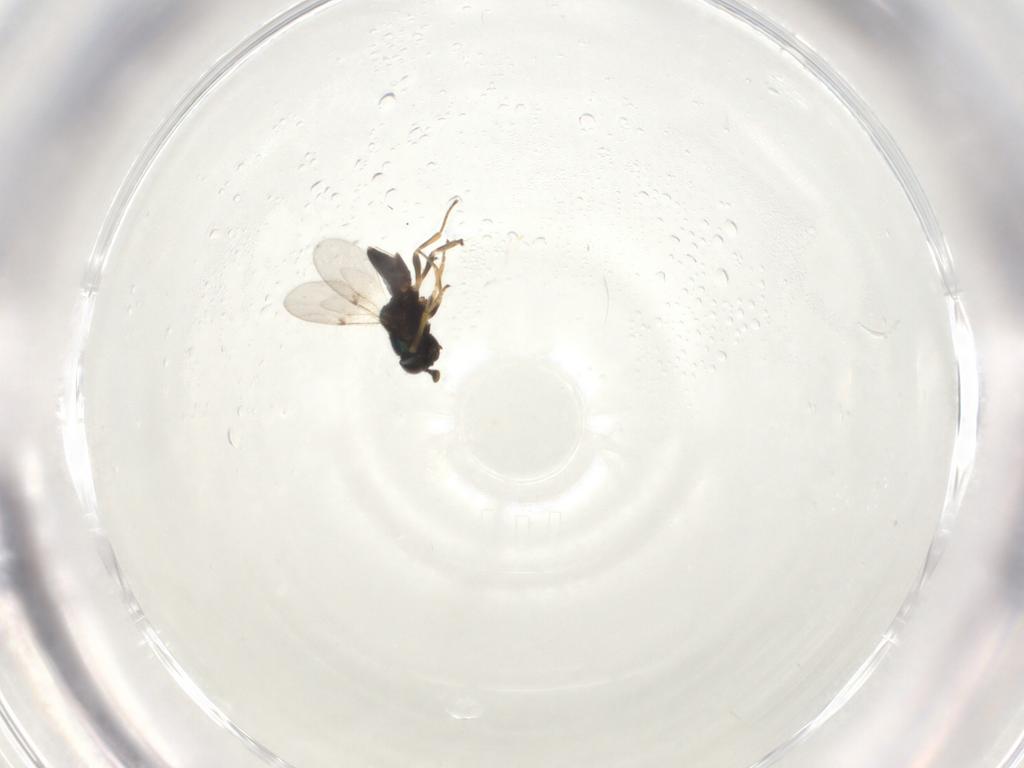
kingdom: Animalia
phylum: Arthropoda
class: Insecta
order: Hymenoptera
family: Encyrtidae
